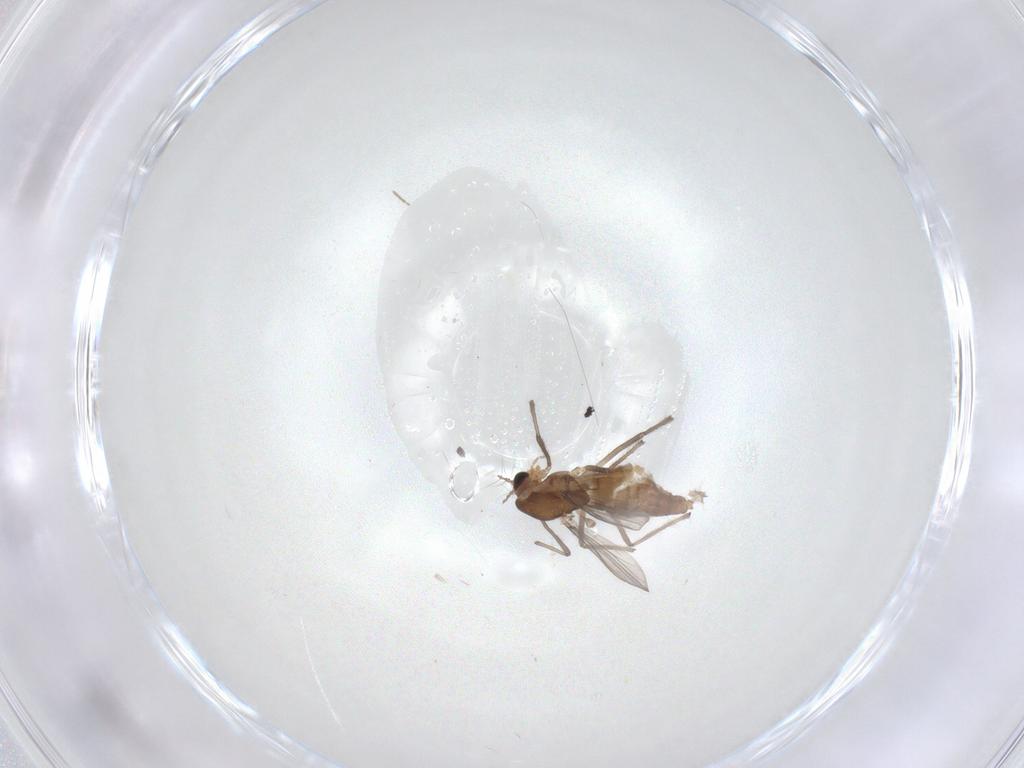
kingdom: Animalia
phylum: Arthropoda
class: Insecta
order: Diptera
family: Chironomidae
